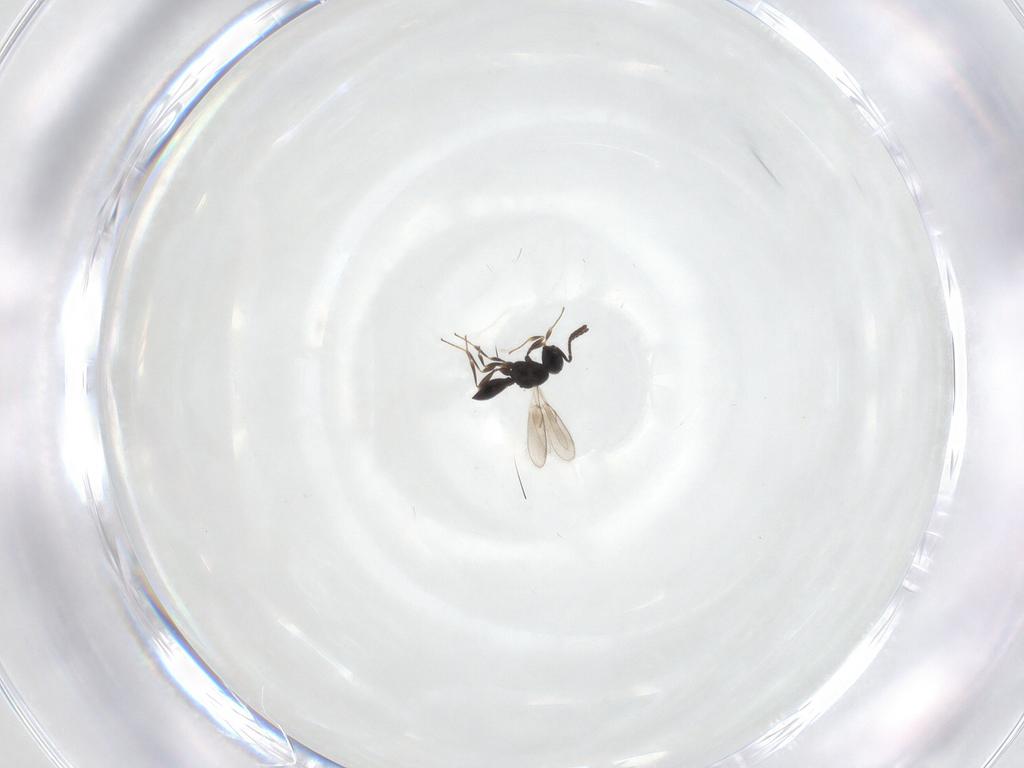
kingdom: Animalia
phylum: Arthropoda
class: Insecta
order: Hymenoptera
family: Scelionidae
